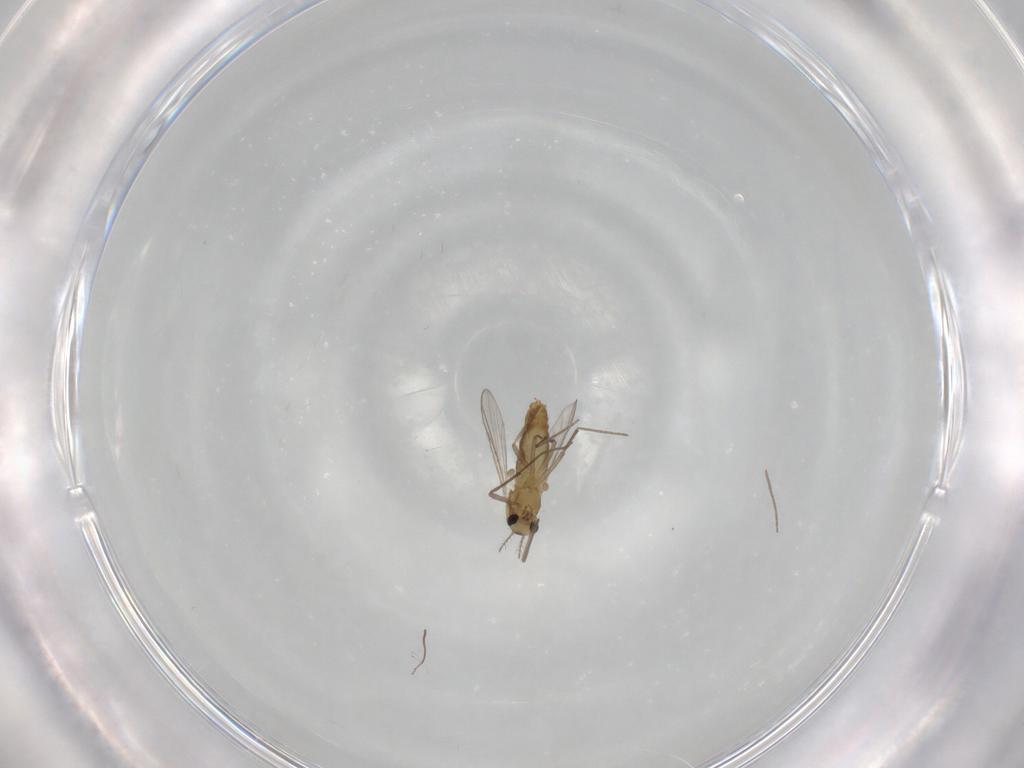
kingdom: Animalia
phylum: Arthropoda
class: Insecta
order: Diptera
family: Chironomidae
